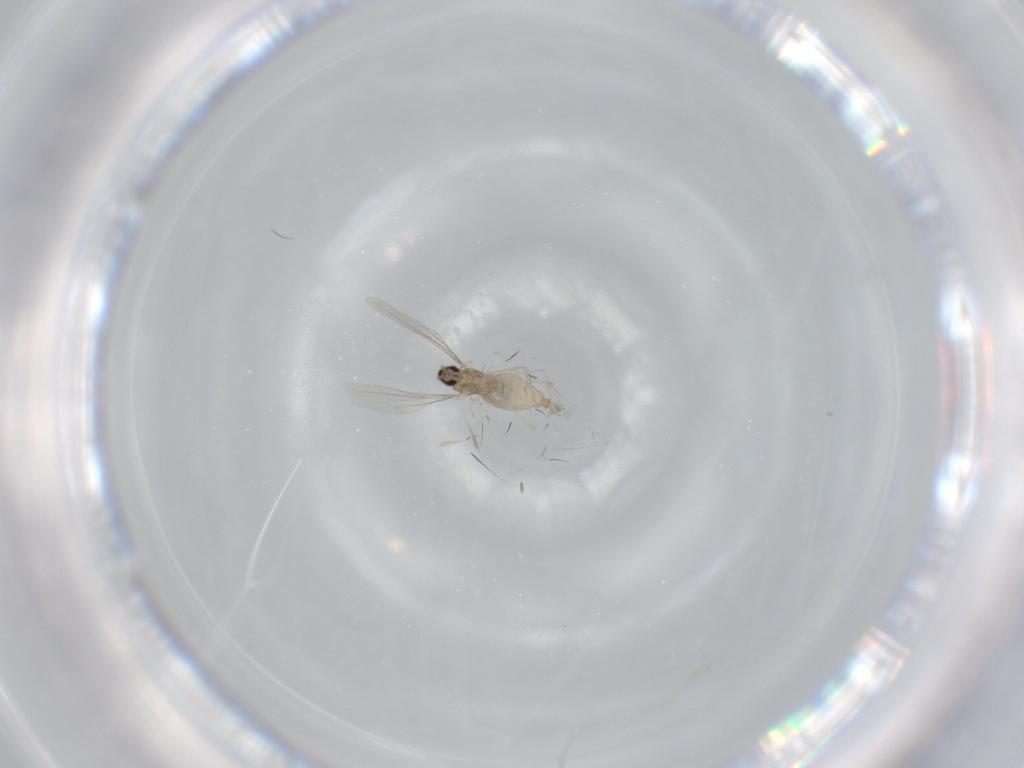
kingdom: Animalia
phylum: Arthropoda
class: Insecta
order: Diptera
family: Cecidomyiidae
